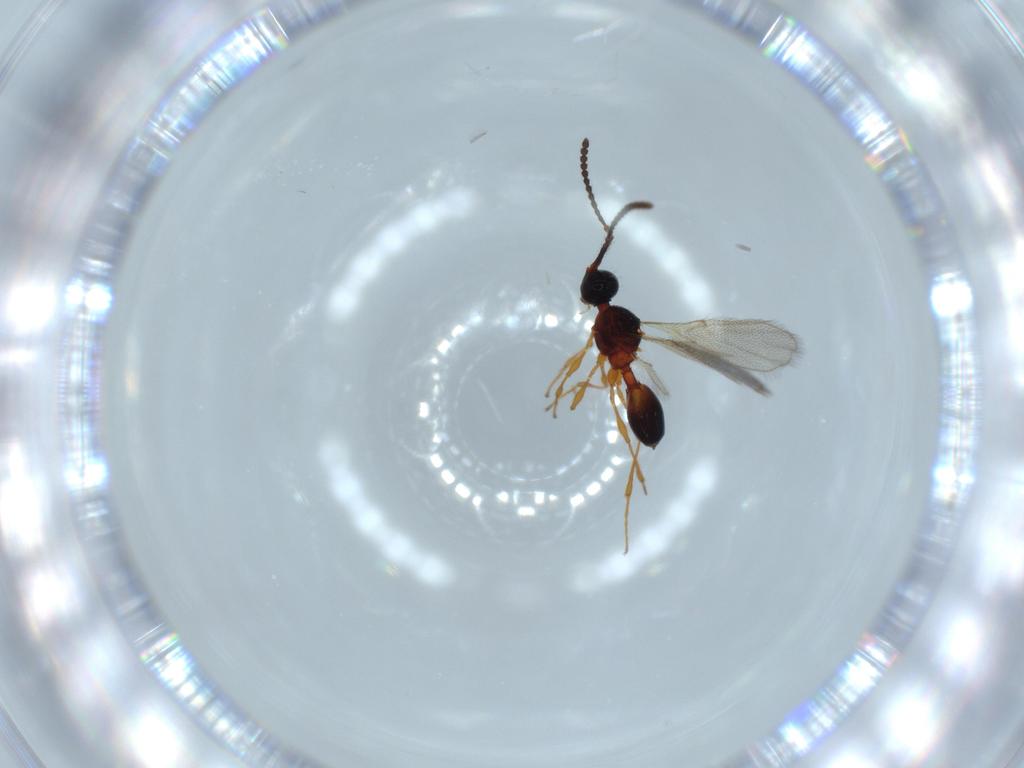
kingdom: Animalia
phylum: Arthropoda
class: Insecta
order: Hymenoptera
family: Diapriidae
